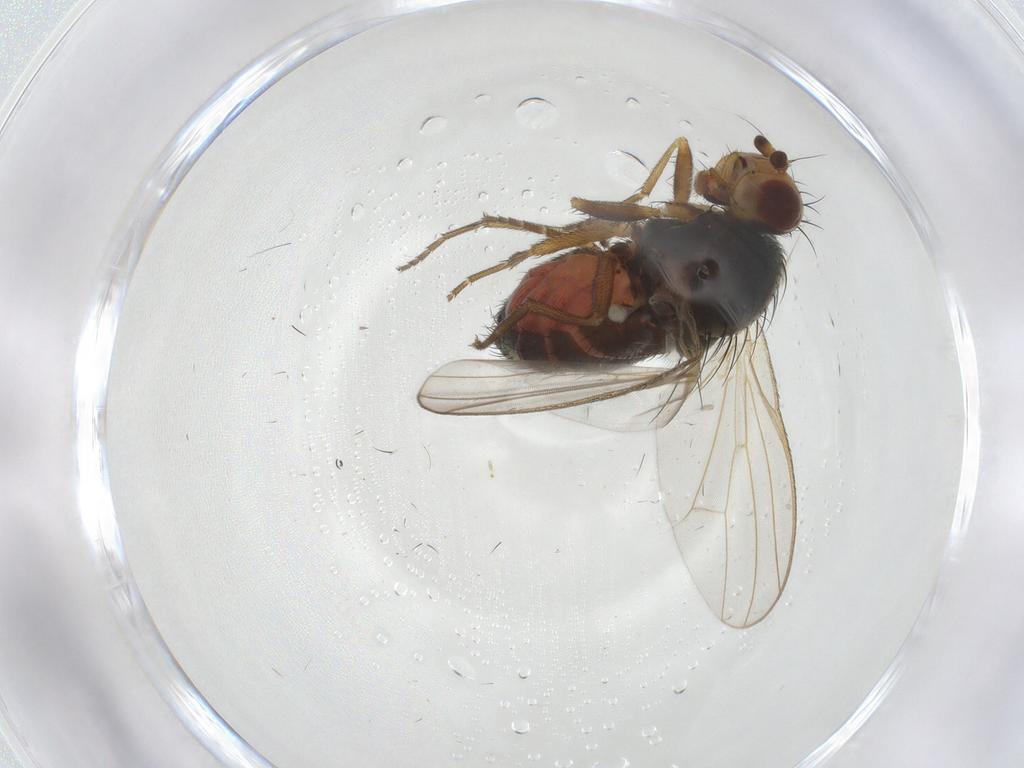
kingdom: Animalia
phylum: Arthropoda
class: Insecta
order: Diptera
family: Heleomyzidae
